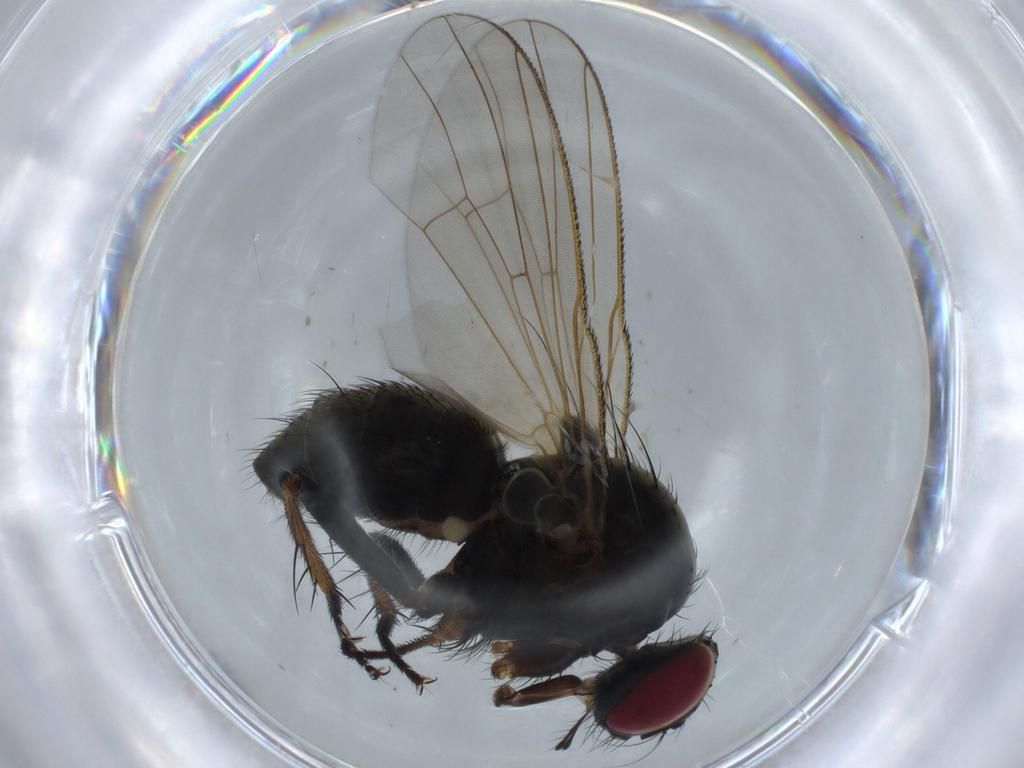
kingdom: Animalia
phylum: Arthropoda
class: Insecta
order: Diptera
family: Muscidae
